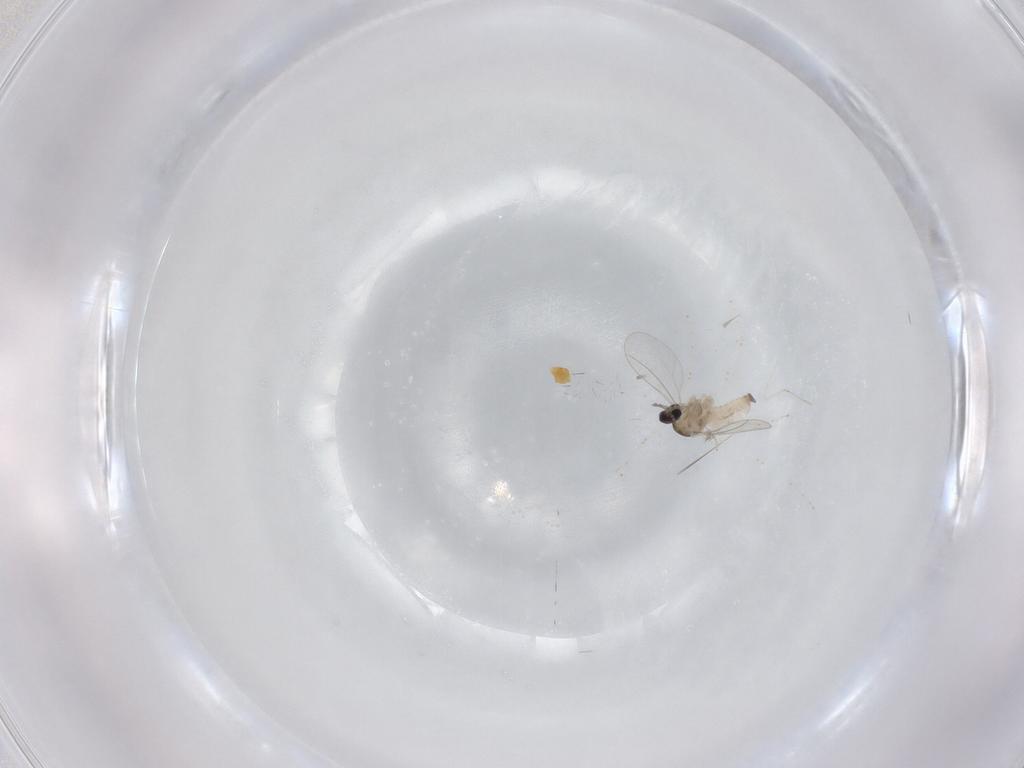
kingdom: Animalia
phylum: Arthropoda
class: Insecta
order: Diptera
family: Cecidomyiidae
